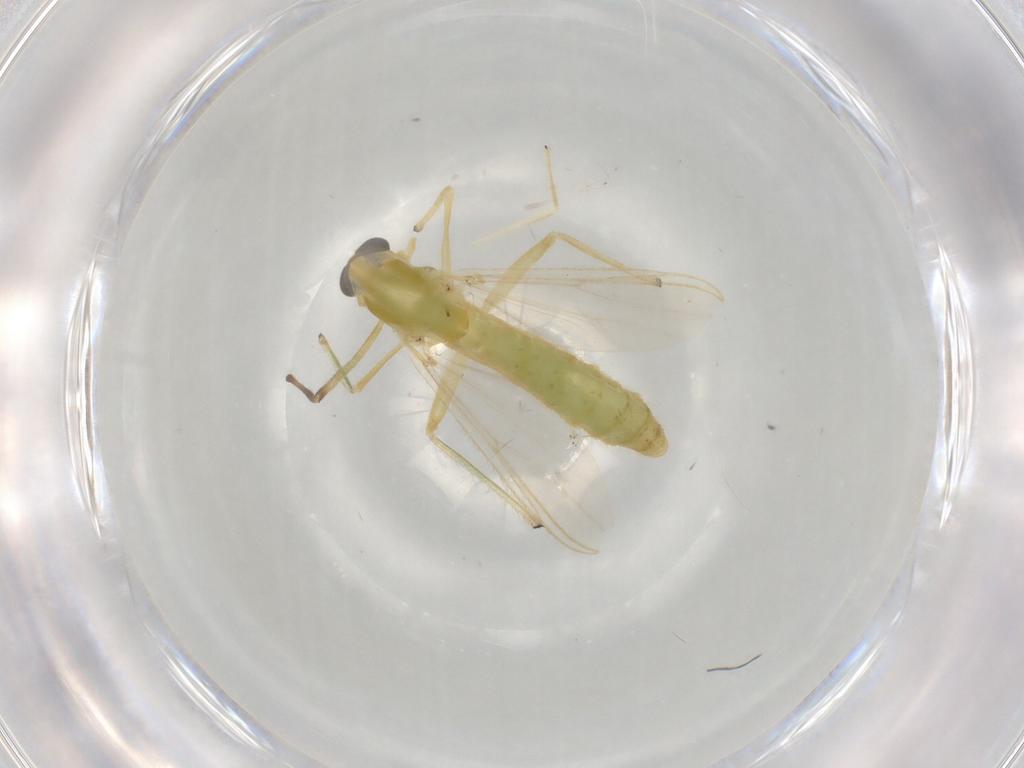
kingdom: Animalia
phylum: Arthropoda
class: Insecta
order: Diptera
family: Chironomidae
